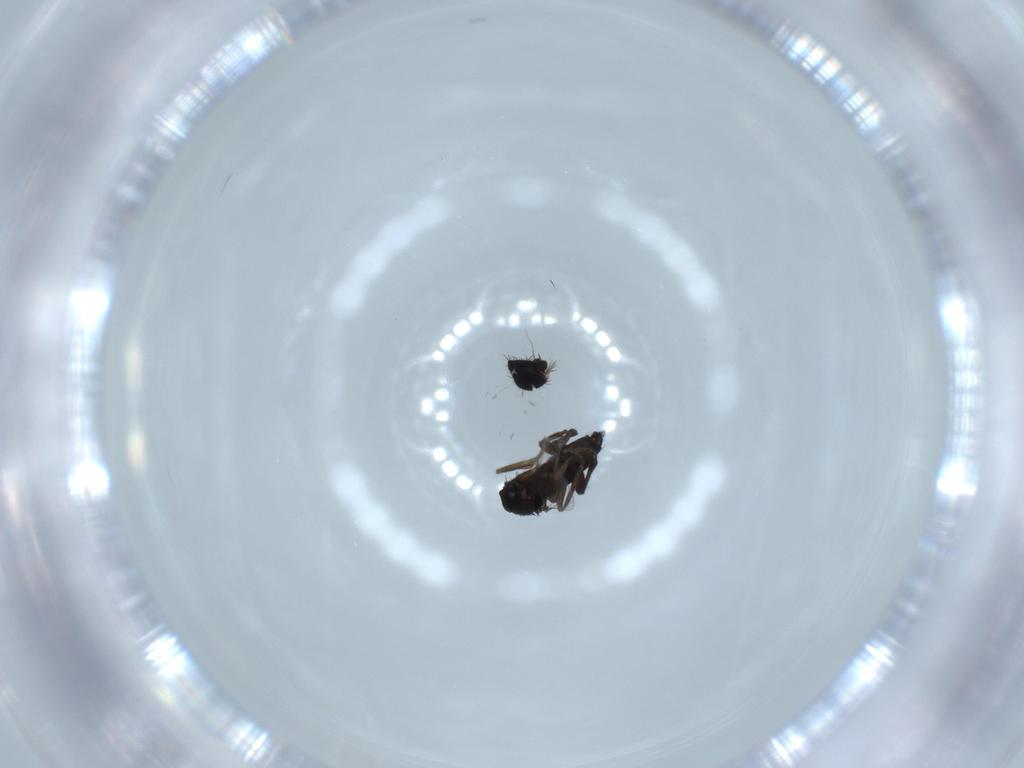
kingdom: Animalia
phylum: Arthropoda
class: Insecta
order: Diptera
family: Phoridae
